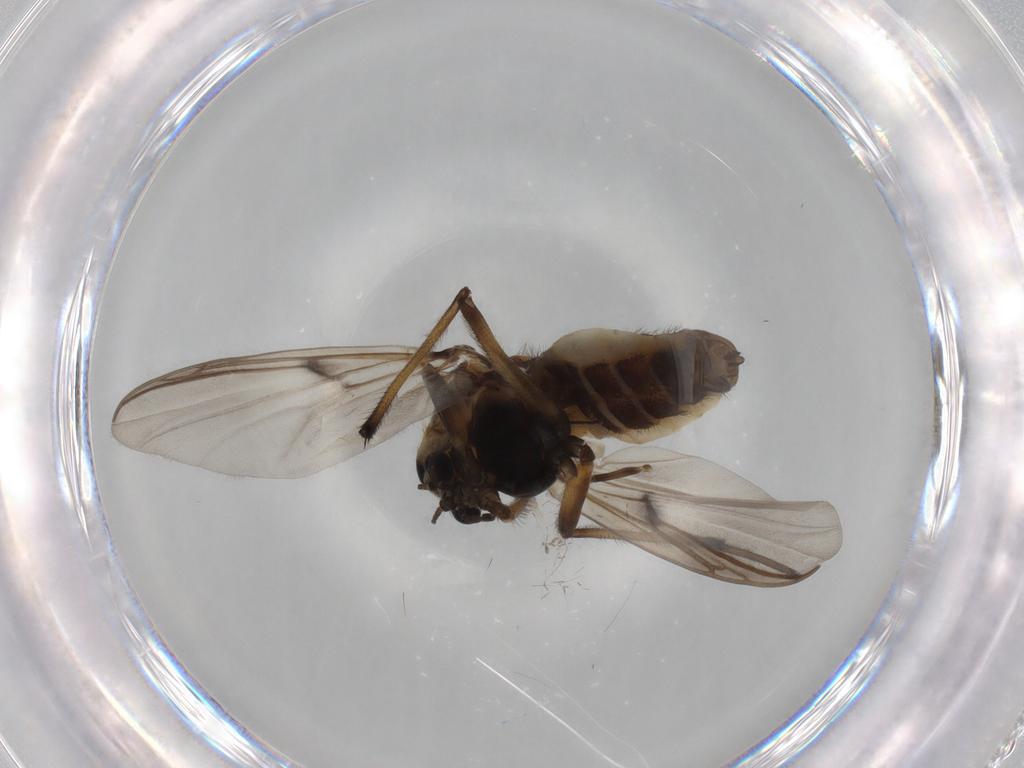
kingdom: Animalia
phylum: Arthropoda
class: Insecta
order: Diptera
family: Chironomidae
